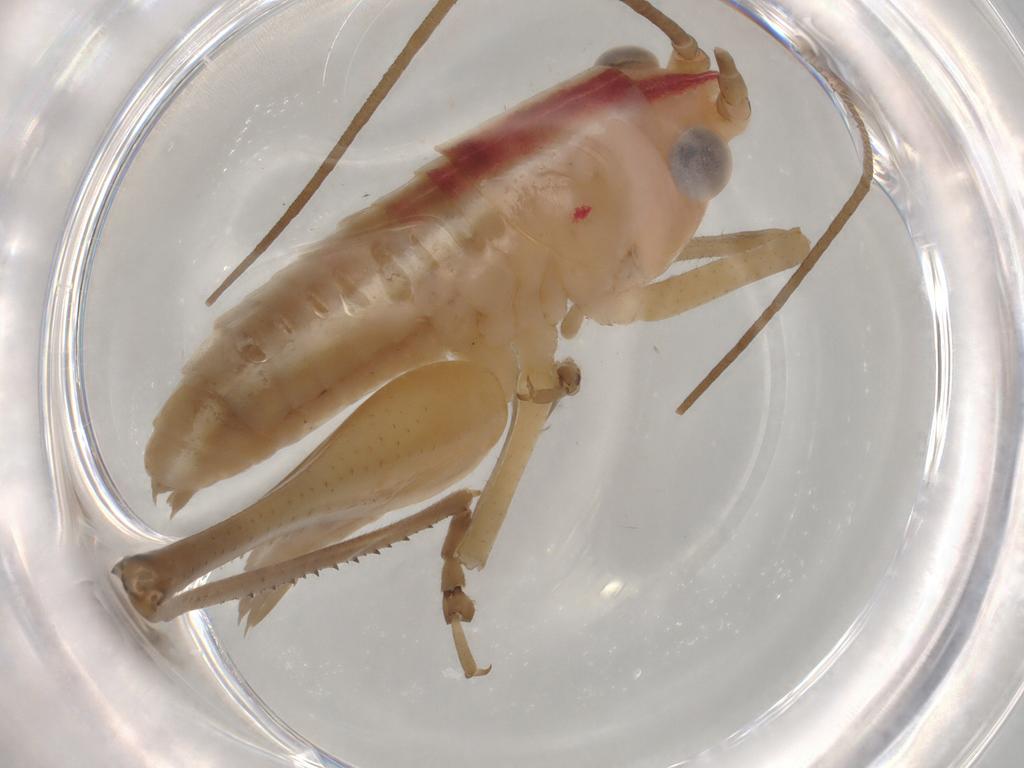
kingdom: Animalia
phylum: Arthropoda
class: Insecta
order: Orthoptera
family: Tettigoniidae
